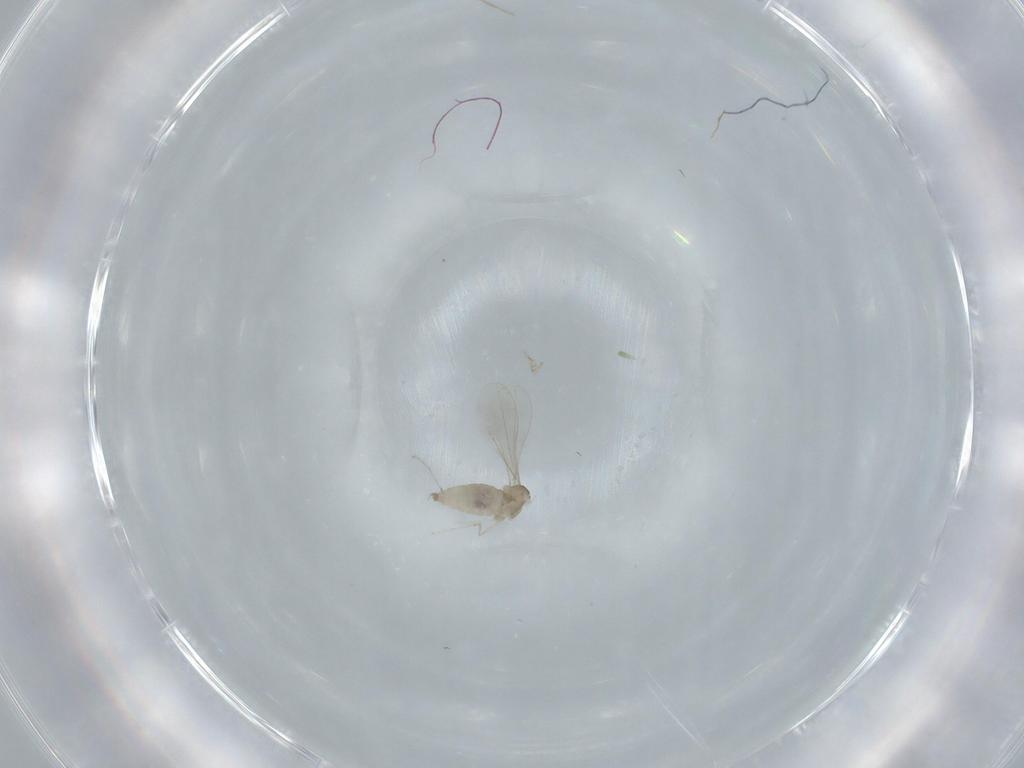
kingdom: Animalia
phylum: Arthropoda
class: Insecta
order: Diptera
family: Cecidomyiidae
